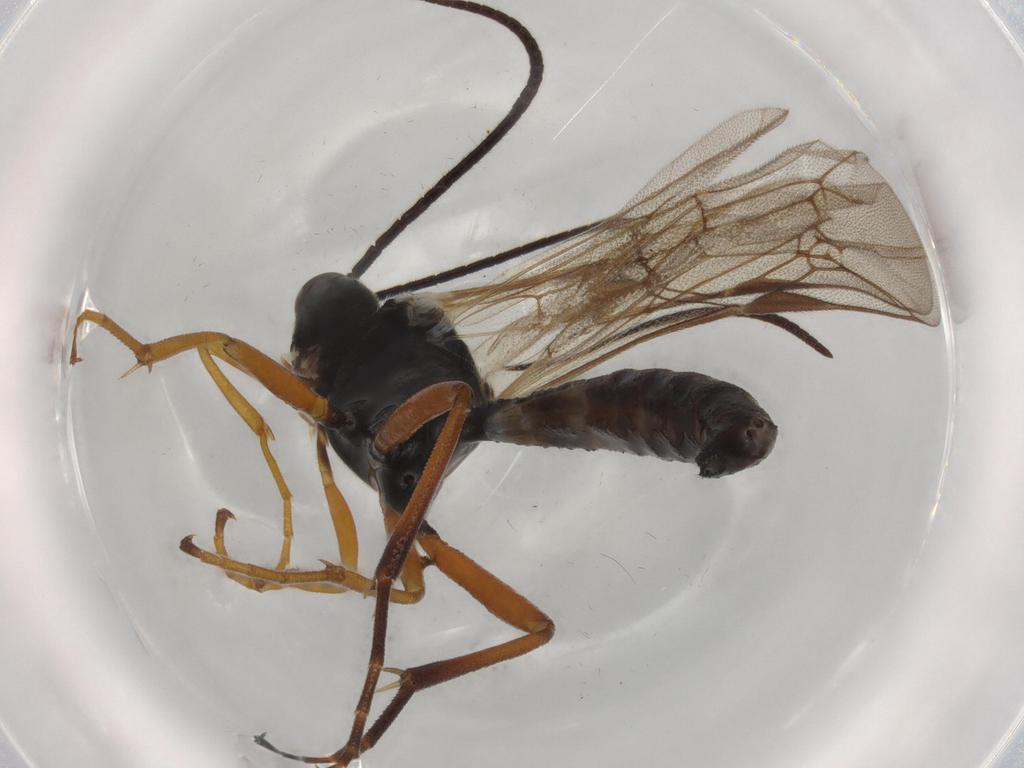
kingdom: Animalia
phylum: Arthropoda
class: Insecta
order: Hymenoptera
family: Ichneumonidae
